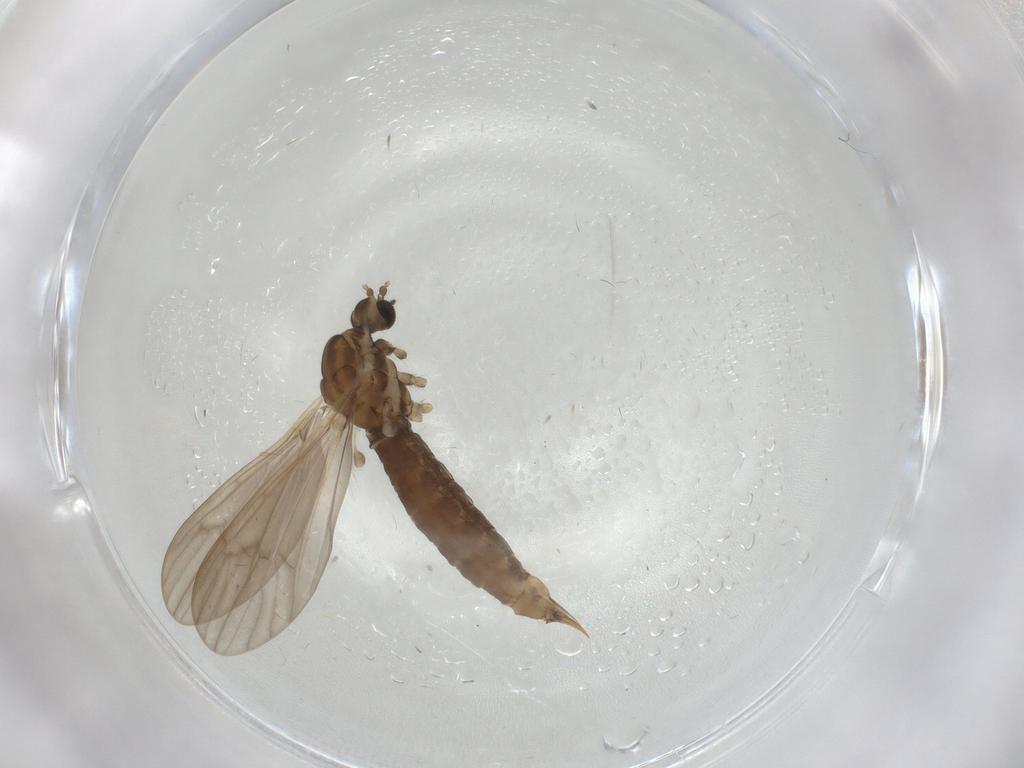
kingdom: Animalia
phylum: Arthropoda
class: Insecta
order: Diptera
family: Limoniidae
